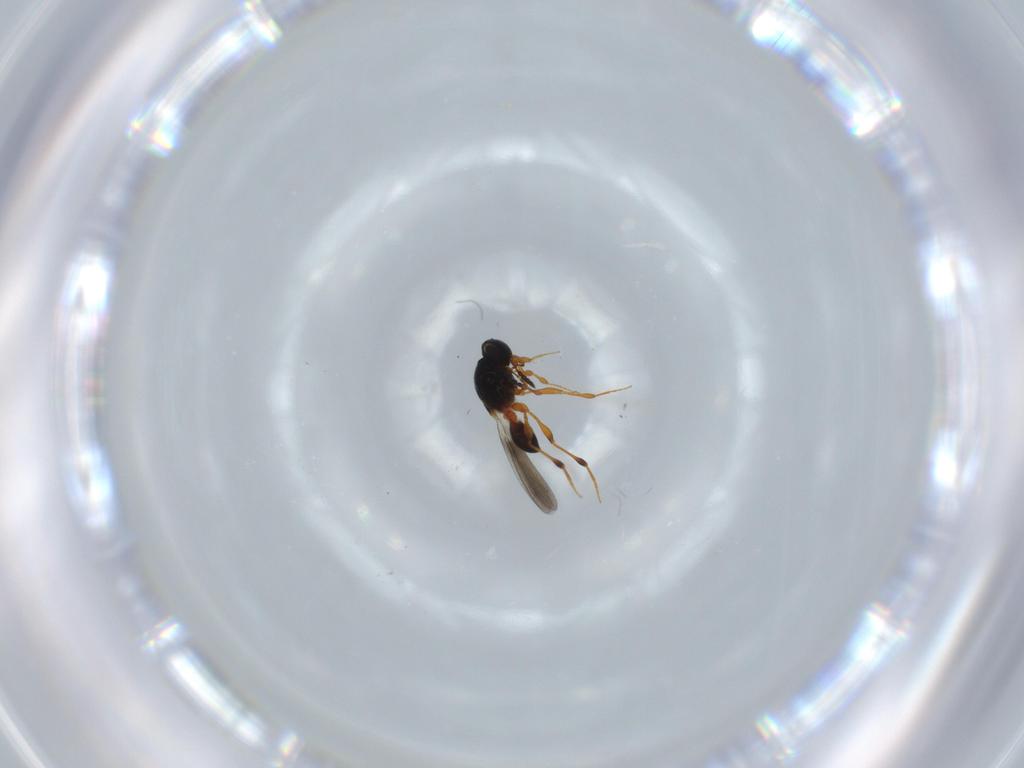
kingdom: Animalia
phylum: Arthropoda
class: Insecta
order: Hymenoptera
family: Platygastridae
